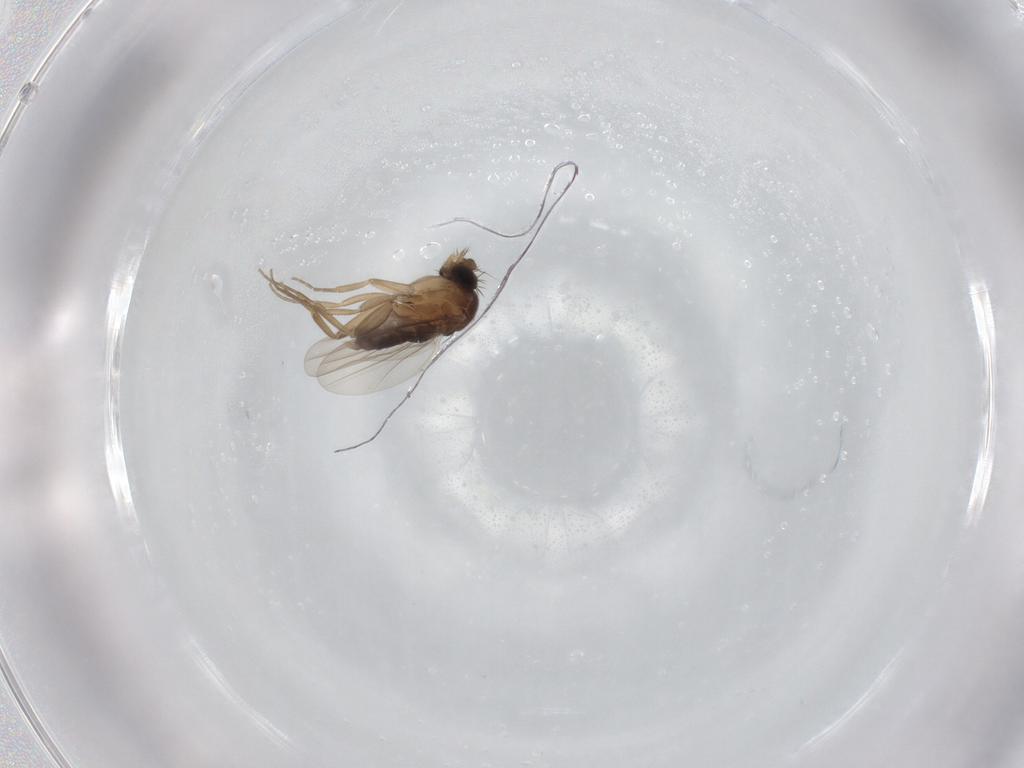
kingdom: Animalia
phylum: Arthropoda
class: Insecta
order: Diptera
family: Phoridae
